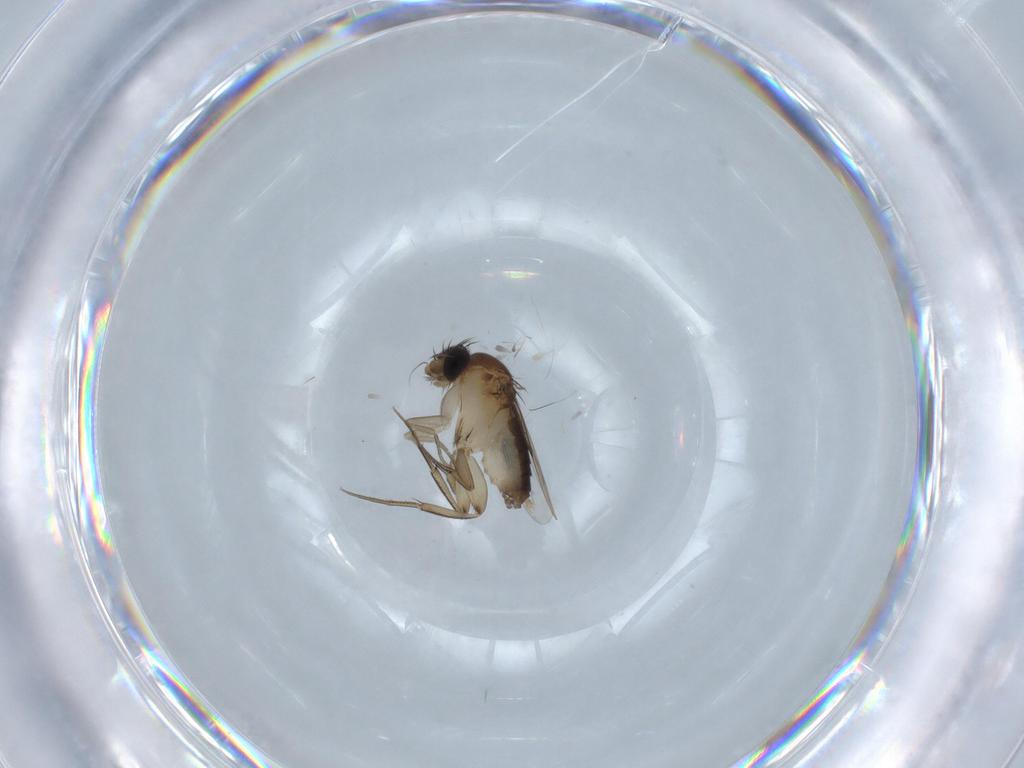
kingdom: Animalia
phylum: Arthropoda
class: Insecta
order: Diptera
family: Phoridae
